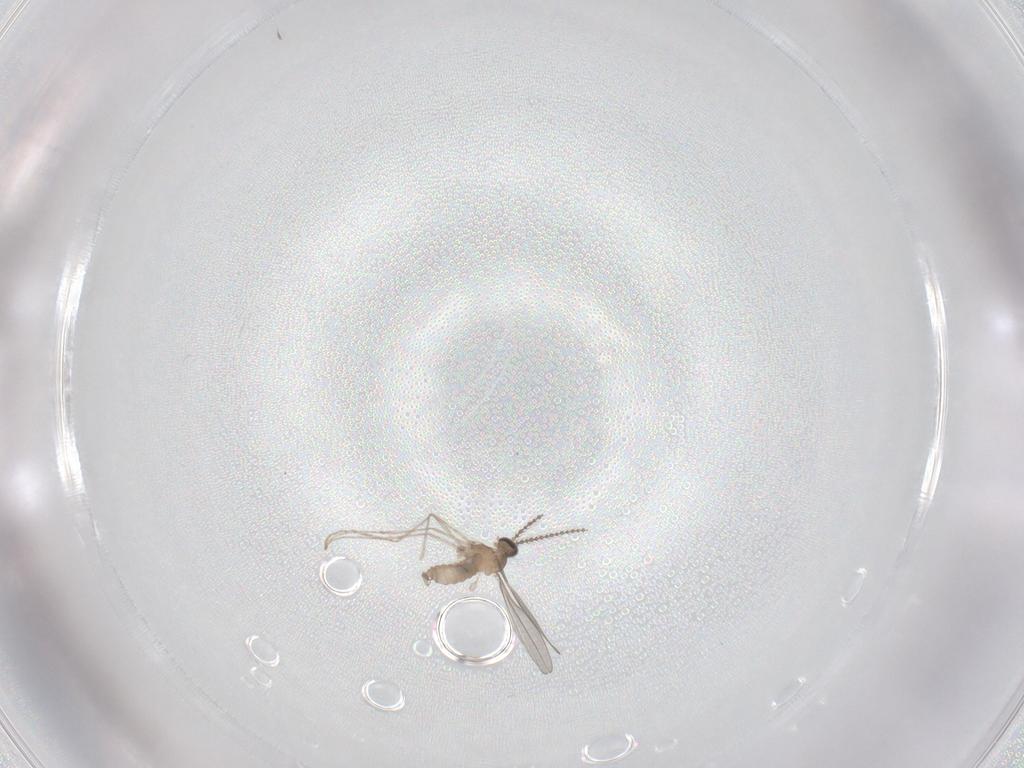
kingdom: Animalia
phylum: Arthropoda
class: Insecta
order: Diptera
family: Cecidomyiidae
